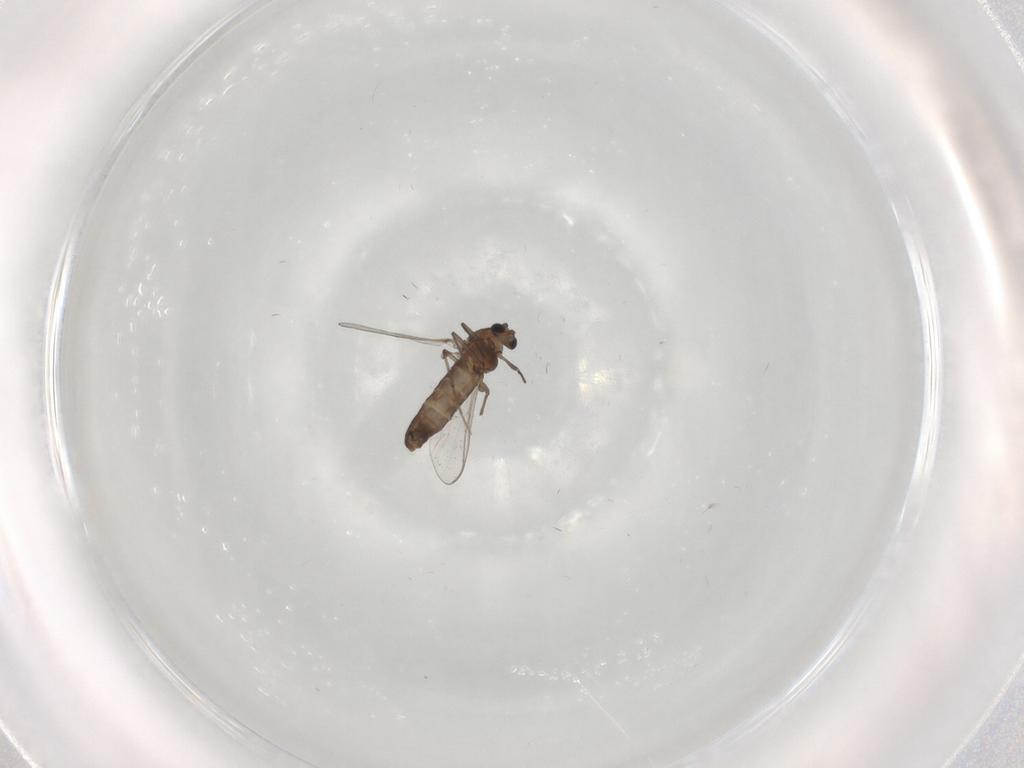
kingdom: Animalia
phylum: Arthropoda
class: Insecta
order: Diptera
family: Chironomidae
